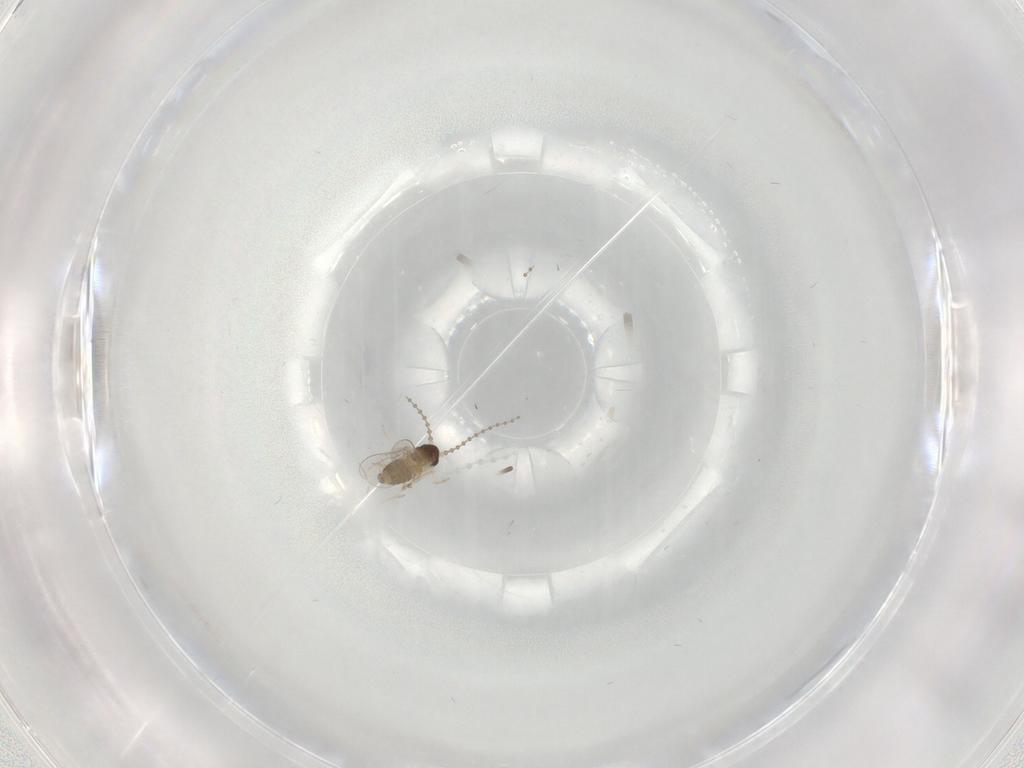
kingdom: Animalia
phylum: Arthropoda
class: Insecta
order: Diptera
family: Cecidomyiidae
